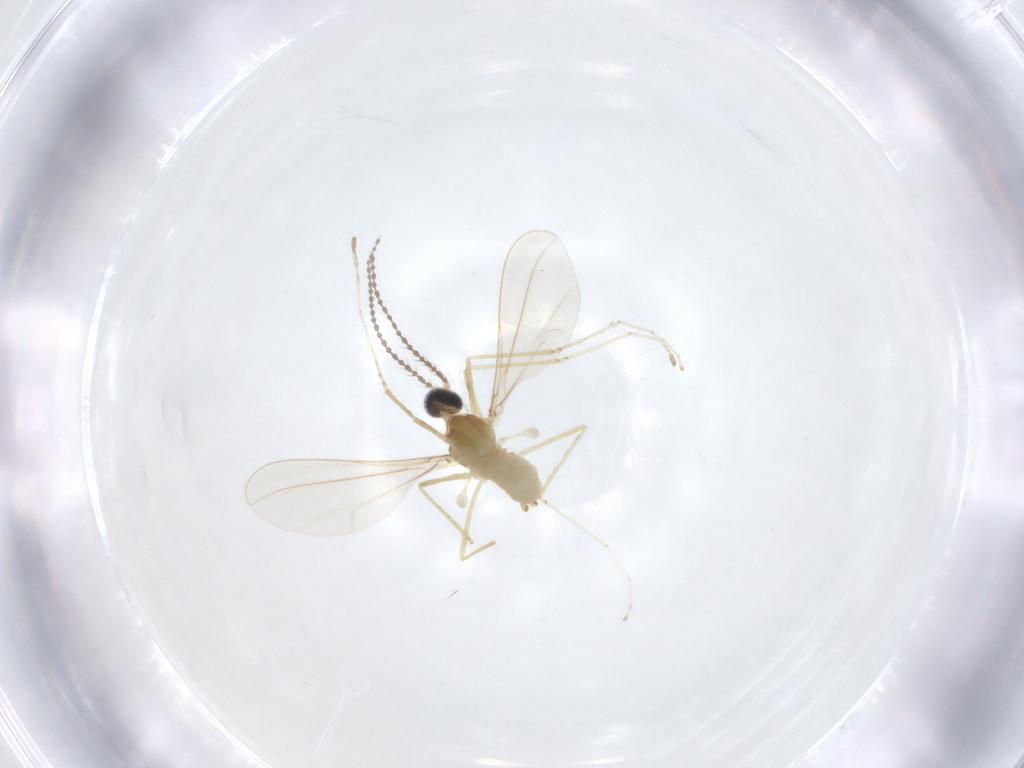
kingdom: Animalia
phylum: Arthropoda
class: Insecta
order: Diptera
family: Cecidomyiidae
